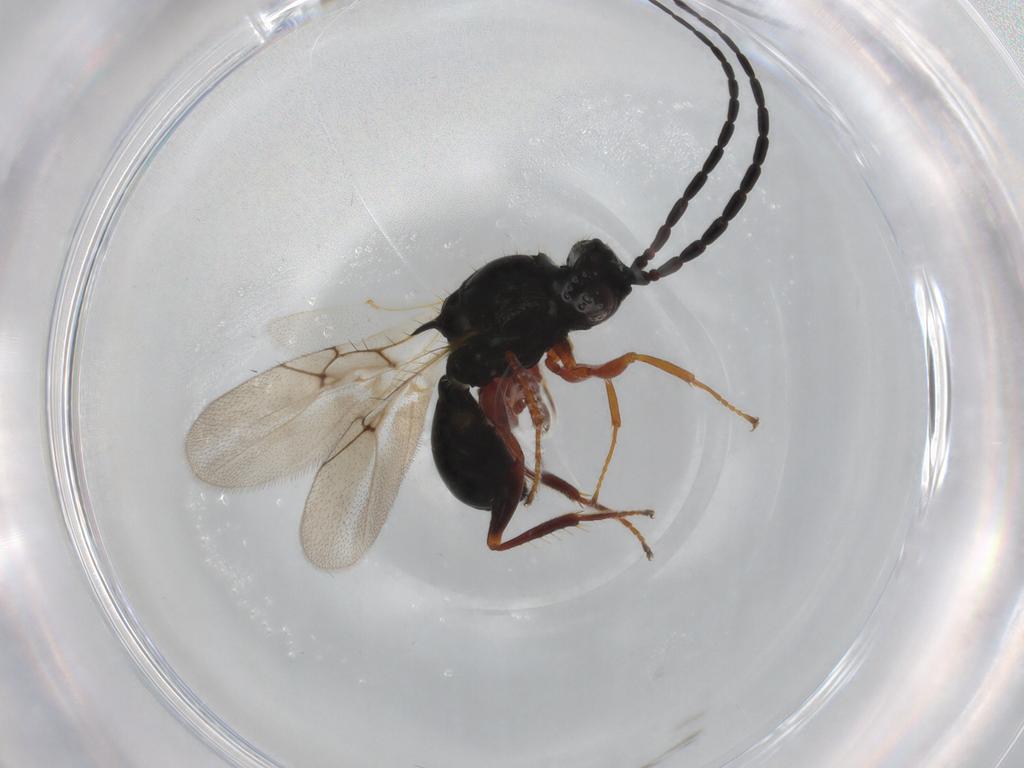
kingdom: Animalia
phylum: Arthropoda
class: Insecta
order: Hymenoptera
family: Figitidae
